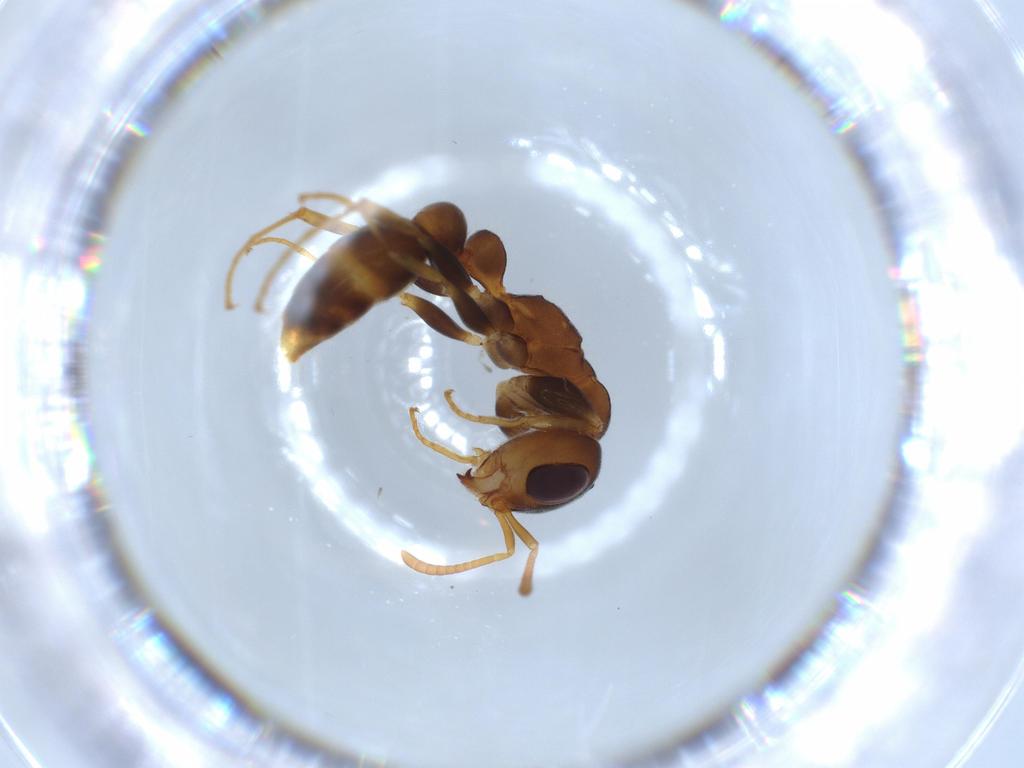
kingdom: Animalia
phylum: Arthropoda
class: Insecta
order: Hymenoptera
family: Formicidae
